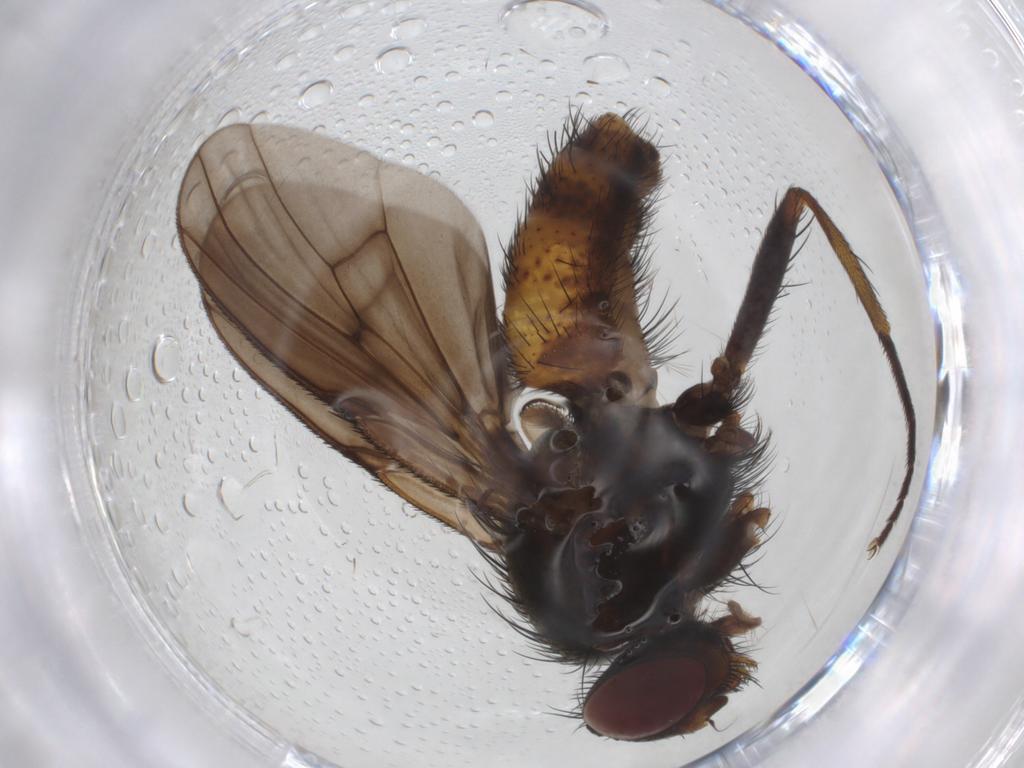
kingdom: Animalia
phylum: Arthropoda
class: Insecta
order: Diptera
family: Muscidae
